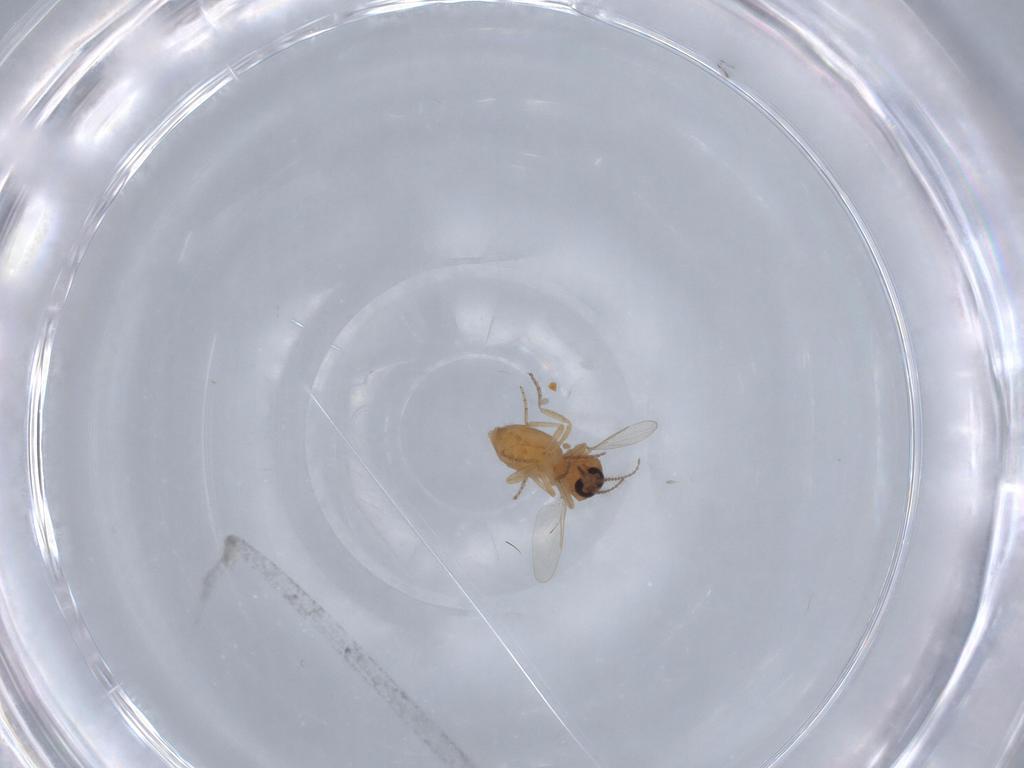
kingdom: Animalia
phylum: Arthropoda
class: Insecta
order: Diptera
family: Ceratopogonidae
